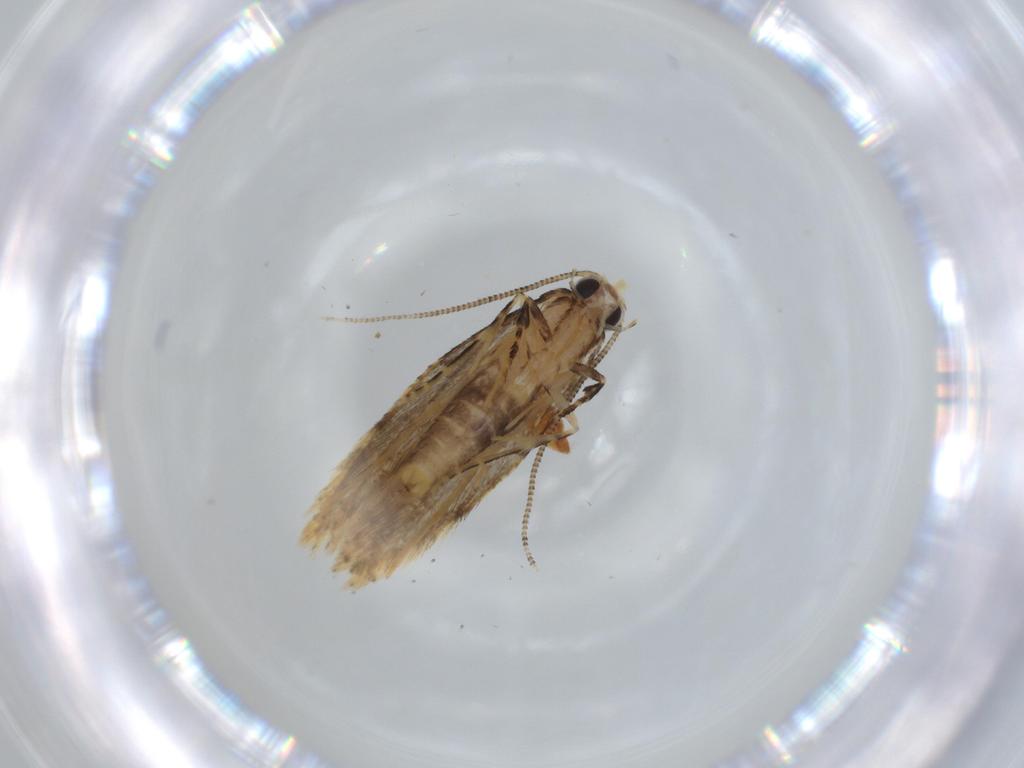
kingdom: Animalia
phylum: Arthropoda
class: Insecta
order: Lepidoptera
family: Tineidae
